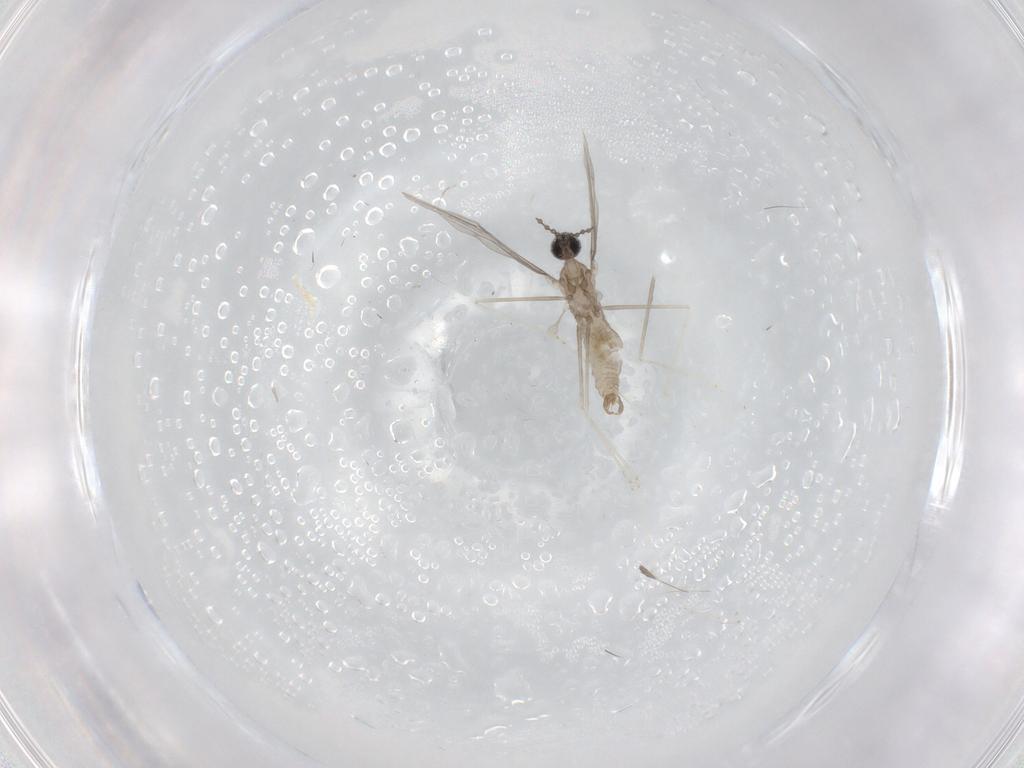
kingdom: Animalia
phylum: Arthropoda
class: Insecta
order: Diptera
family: Cecidomyiidae
